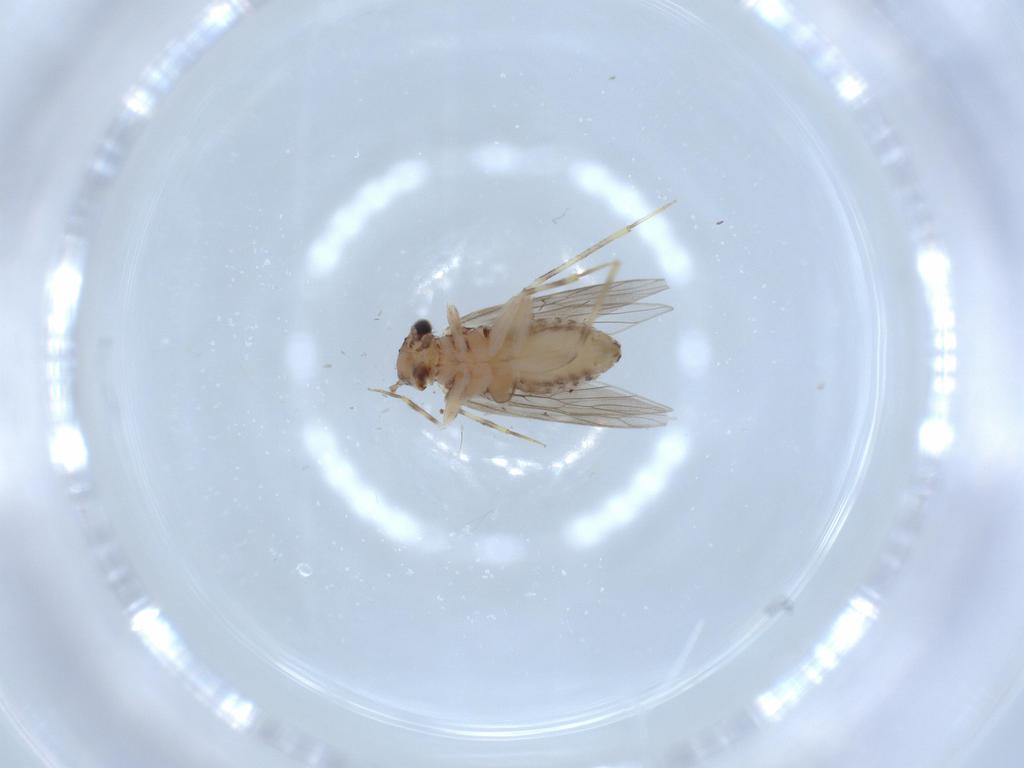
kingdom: Animalia
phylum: Arthropoda
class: Insecta
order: Psocodea
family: Lepidopsocidae
